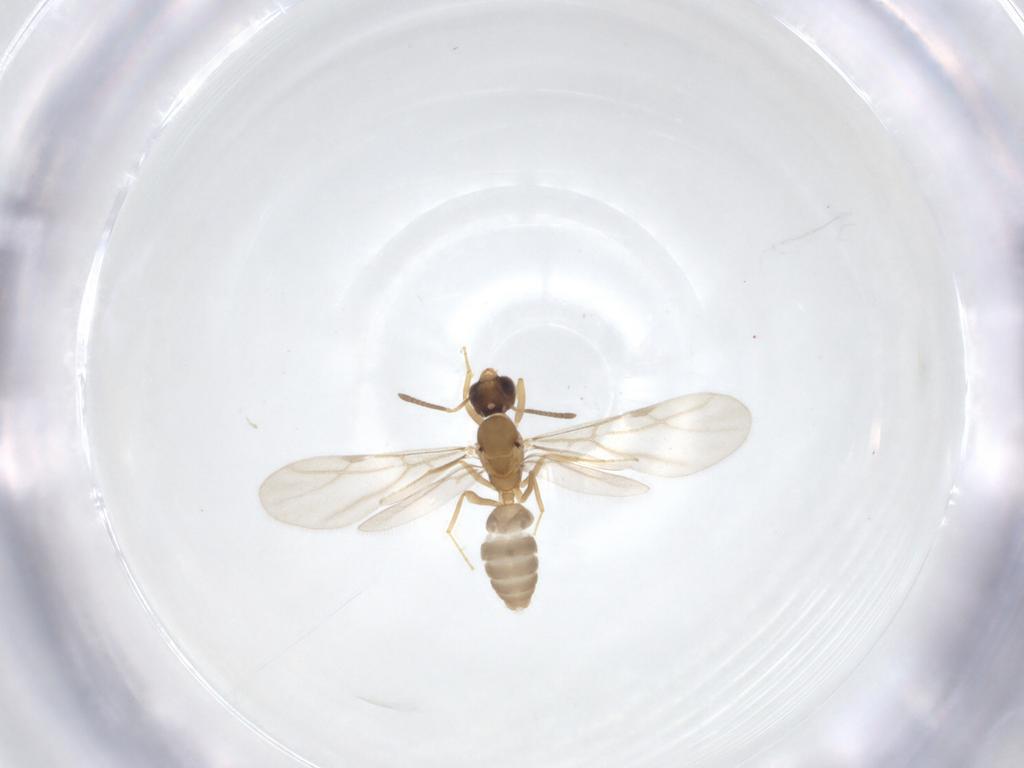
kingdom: Animalia
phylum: Arthropoda
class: Insecta
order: Hymenoptera
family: Formicidae
